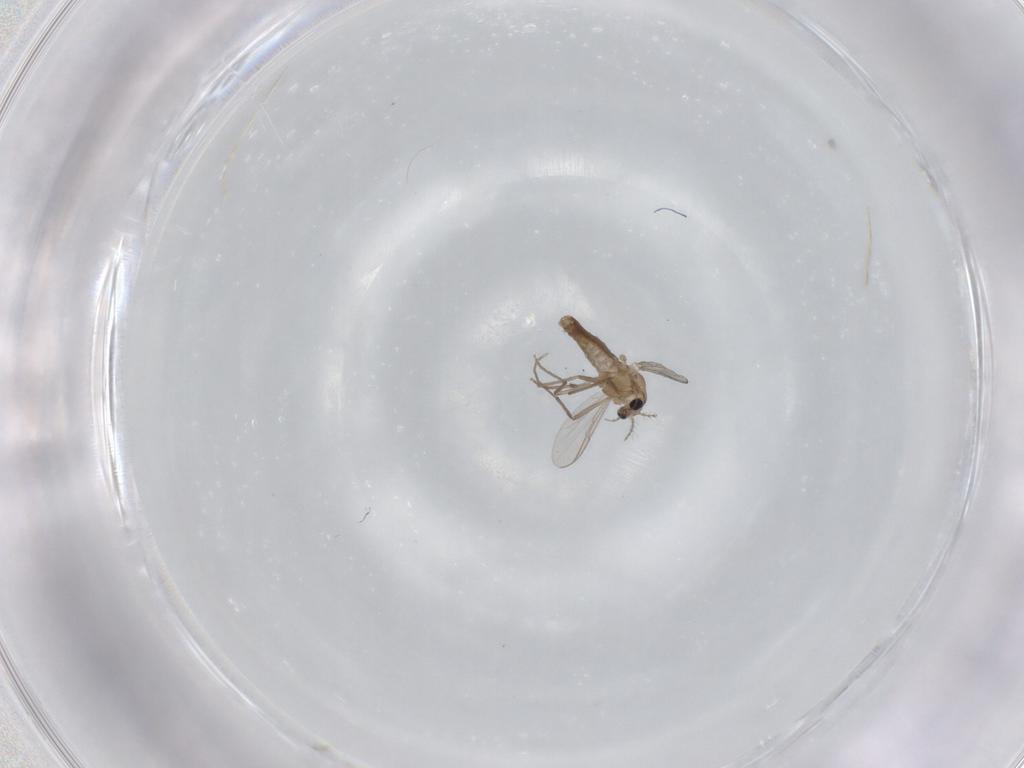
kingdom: Animalia
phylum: Arthropoda
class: Insecta
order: Diptera
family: Chironomidae
